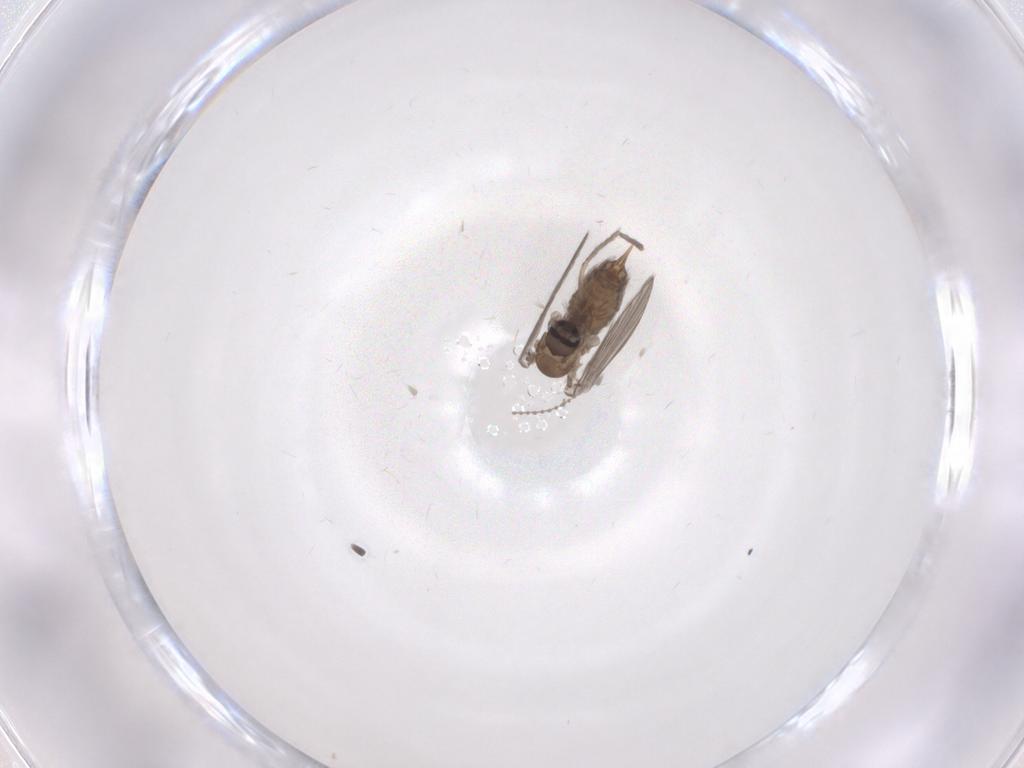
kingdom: Animalia
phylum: Arthropoda
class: Insecta
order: Diptera
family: Psychodidae
